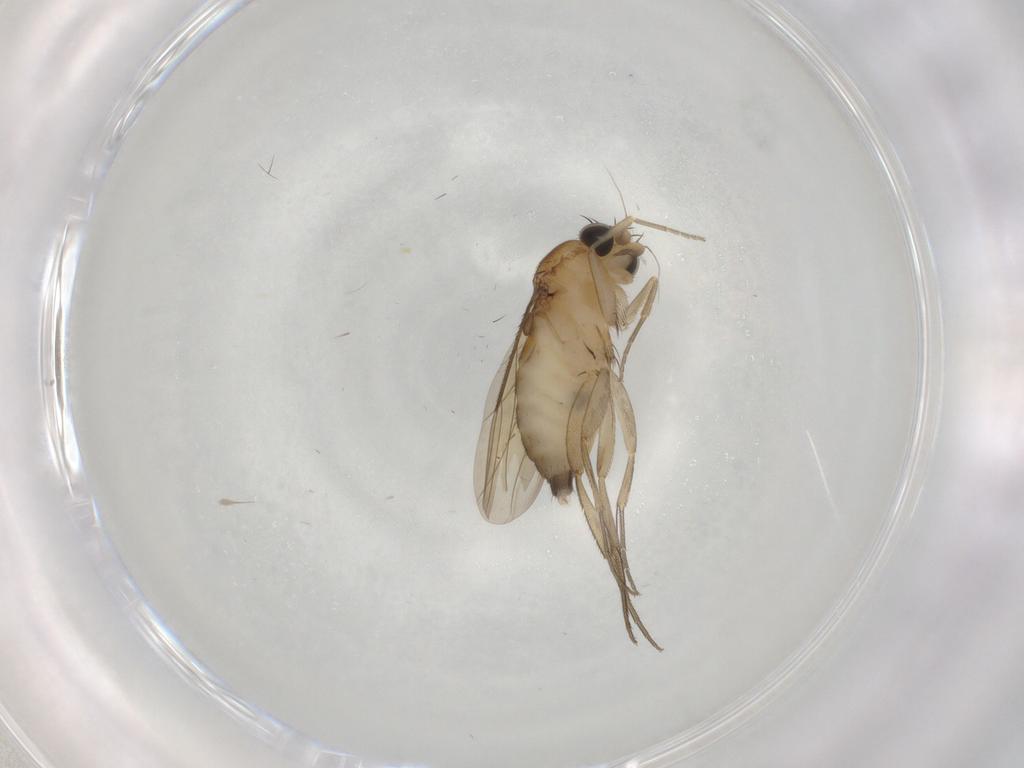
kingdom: Animalia
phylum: Arthropoda
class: Insecta
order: Diptera
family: Phoridae
